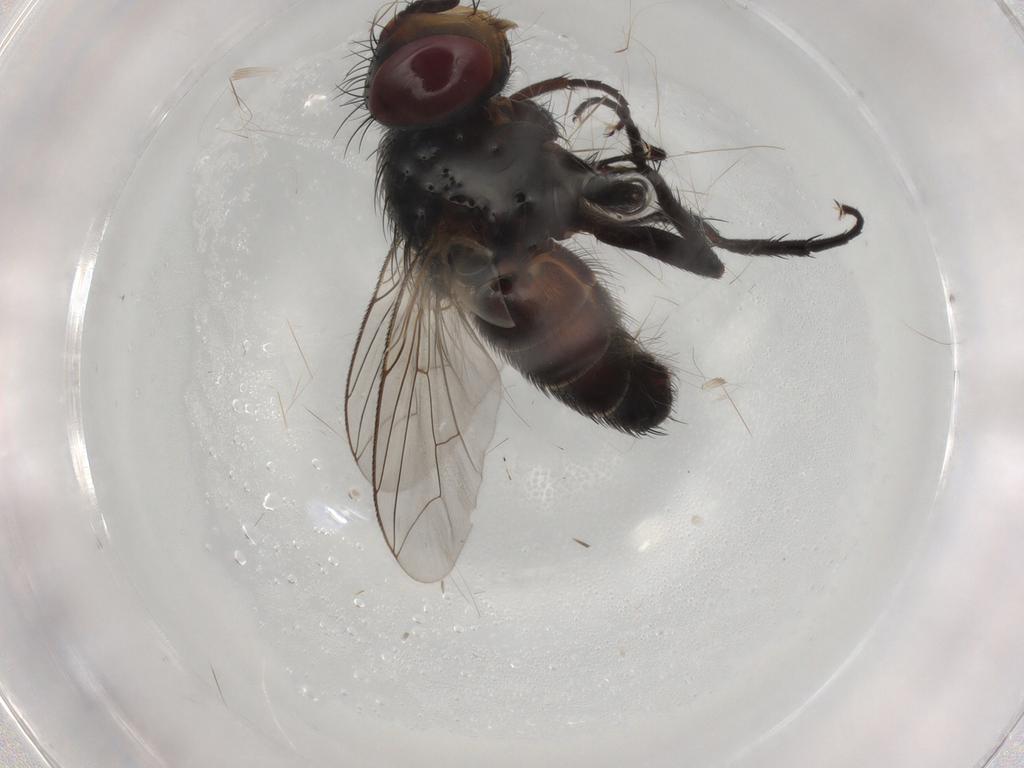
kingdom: Animalia
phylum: Arthropoda
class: Insecta
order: Diptera
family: Tachinidae
